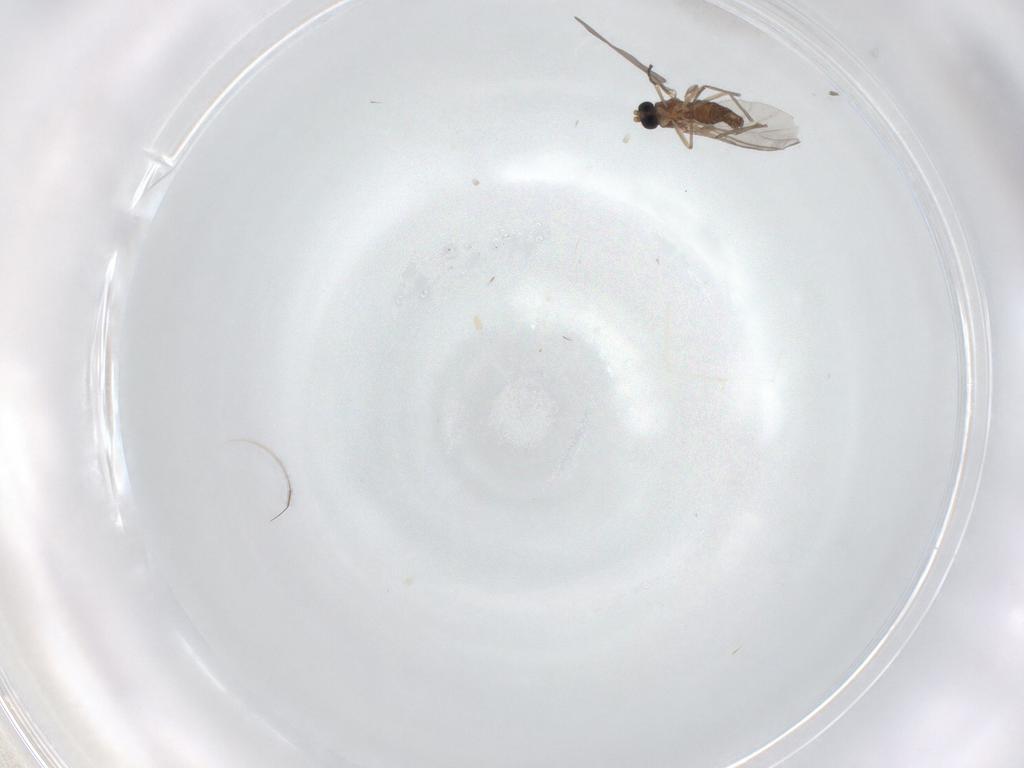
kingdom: Animalia
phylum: Arthropoda
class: Insecta
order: Diptera
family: Sciaridae
